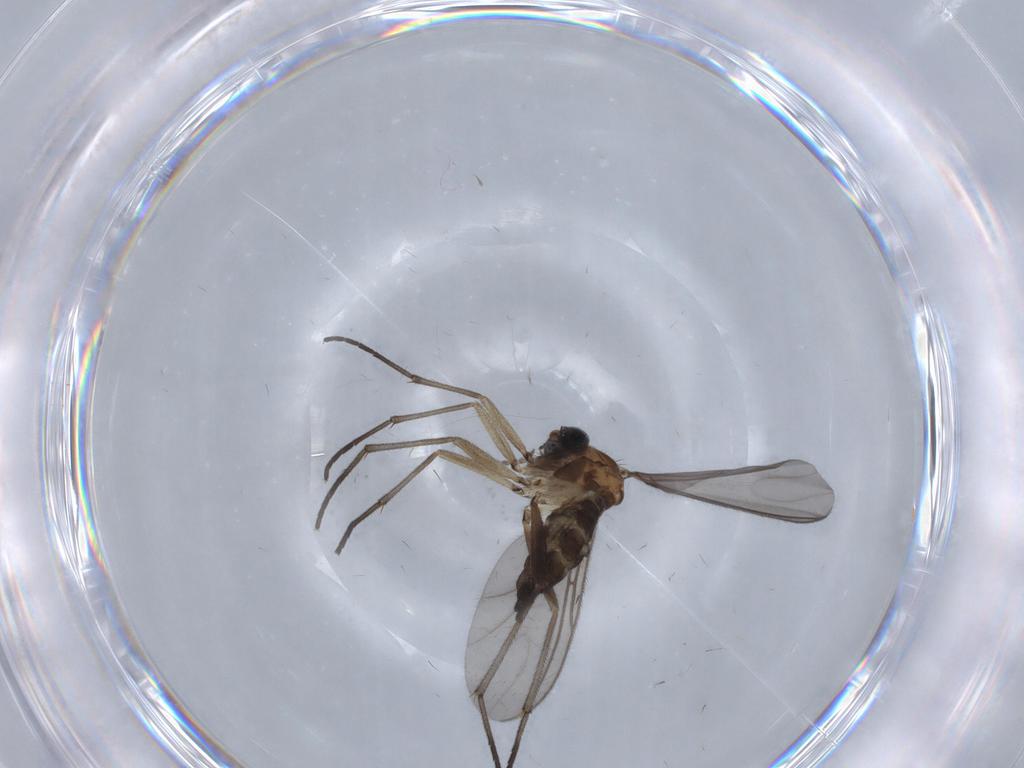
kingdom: Animalia
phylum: Arthropoda
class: Insecta
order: Diptera
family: Sciaridae
